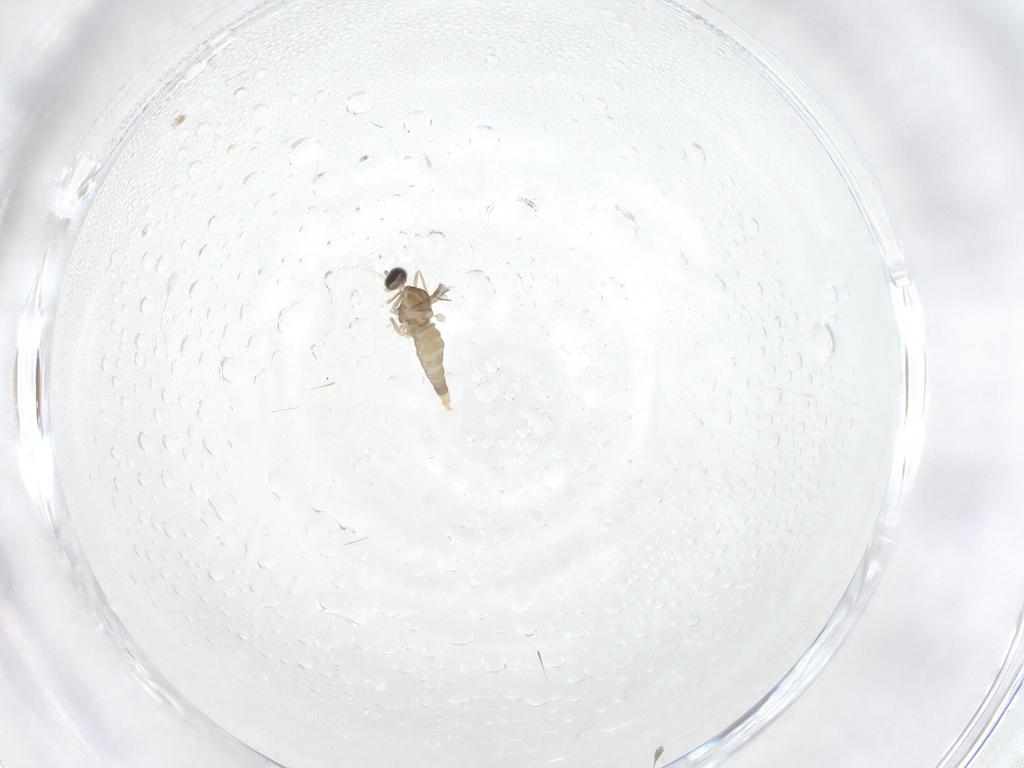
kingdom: Animalia
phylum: Arthropoda
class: Insecta
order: Diptera
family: Cecidomyiidae
